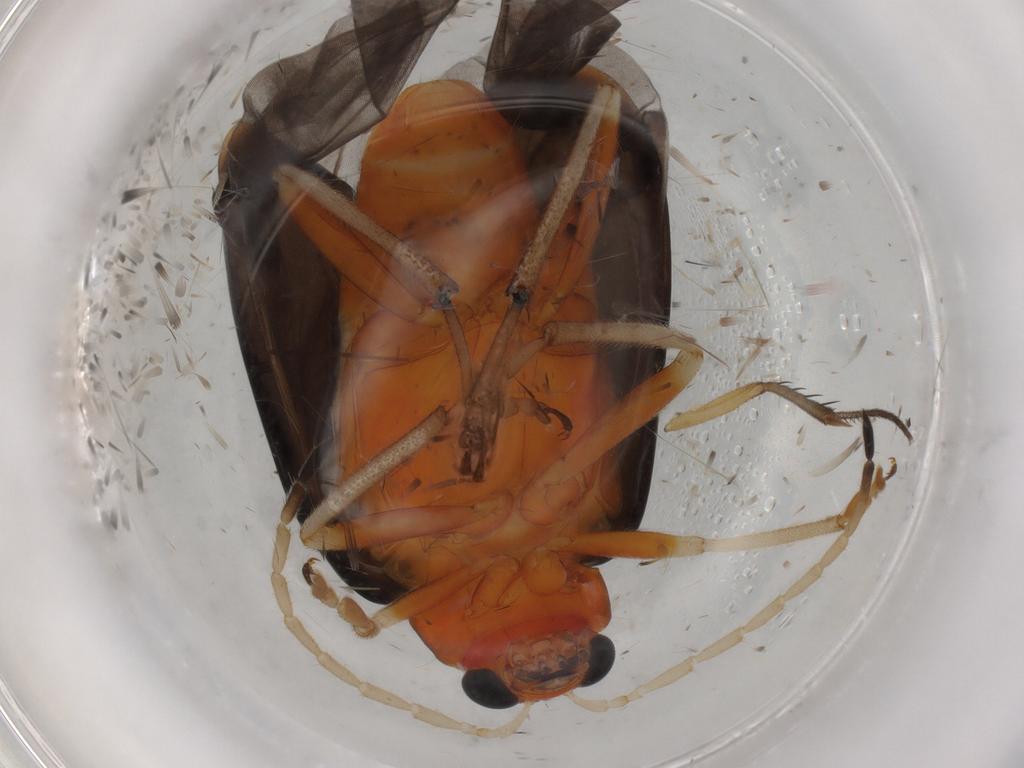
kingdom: Animalia
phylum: Arthropoda
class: Insecta
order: Coleoptera
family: Chrysomelidae
